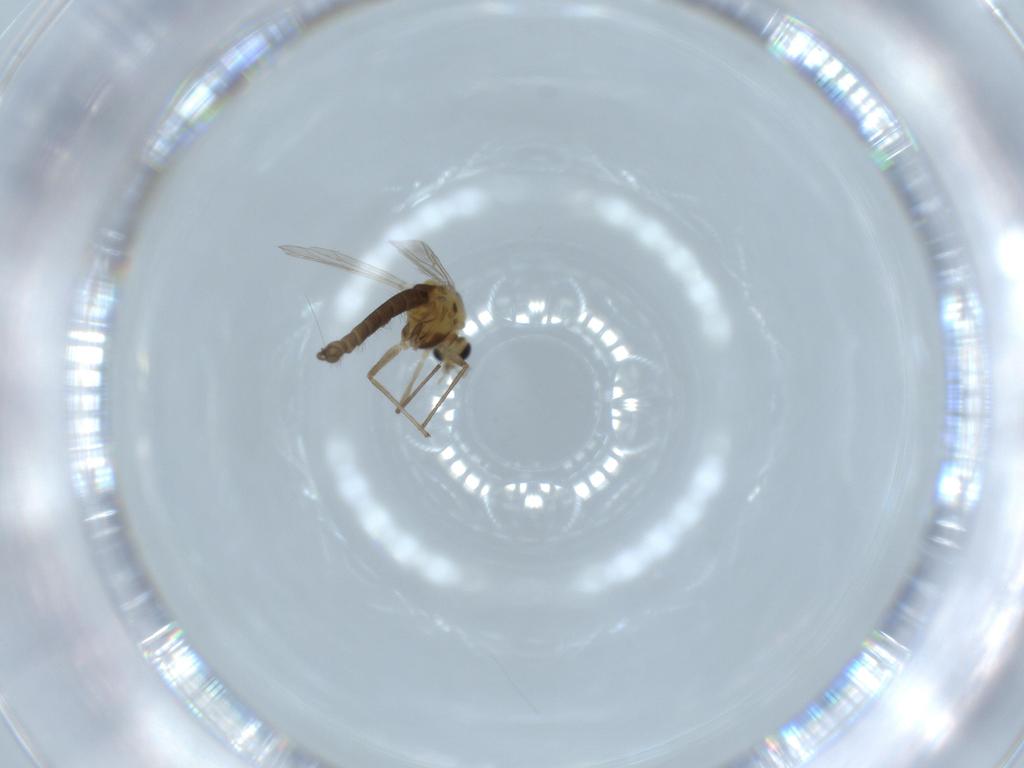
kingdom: Animalia
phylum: Arthropoda
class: Insecta
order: Diptera
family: Chironomidae
